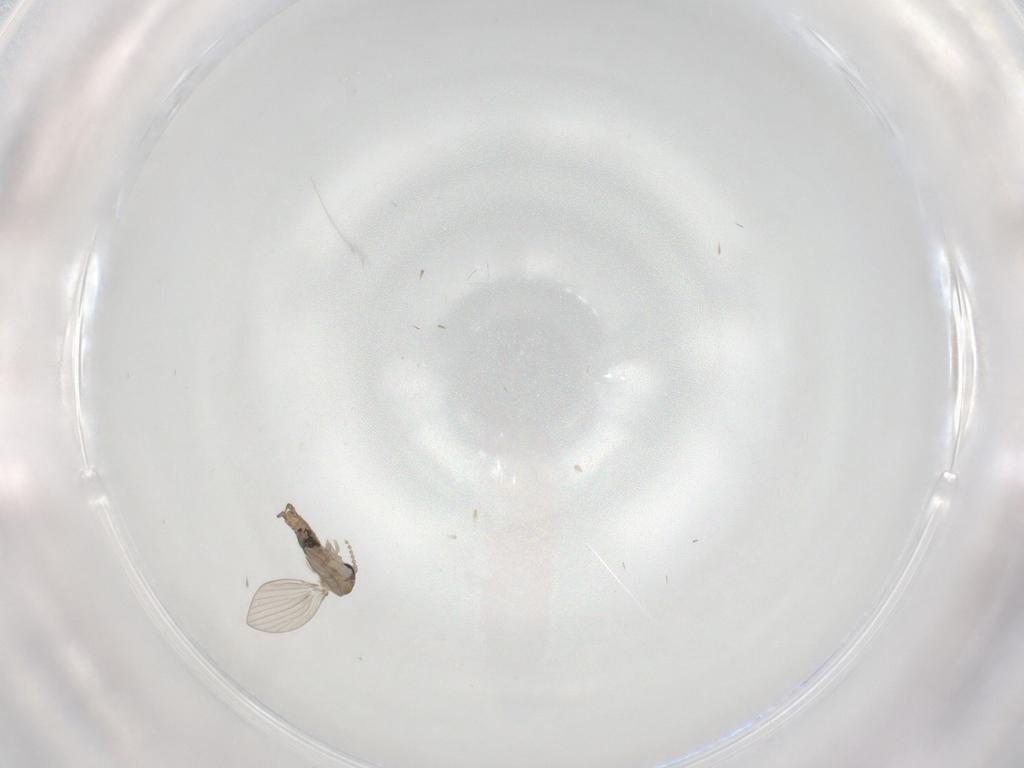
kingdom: Animalia
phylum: Arthropoda
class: Insecta
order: Diptera
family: Psychodidae
